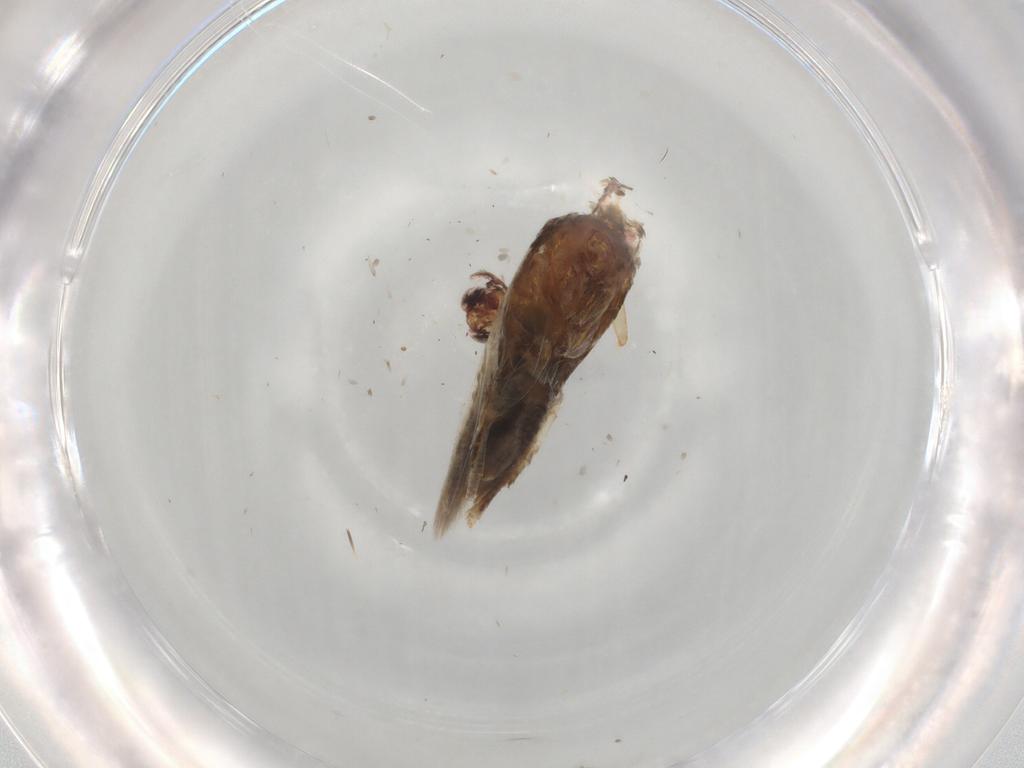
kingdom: Animalia
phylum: Arthropoda
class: Insecta
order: Lepidoptera
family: Cosmopterigidae
